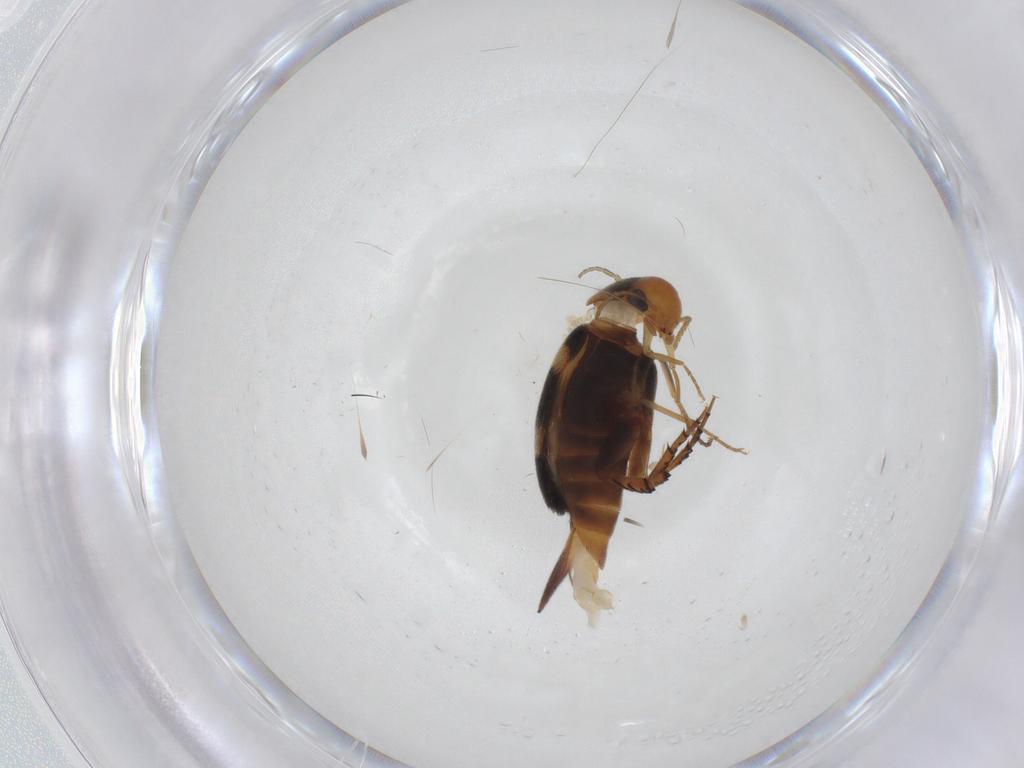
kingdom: Animalia
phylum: Arthropoda
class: Insecta
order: Coleoptera
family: Mordellidae
